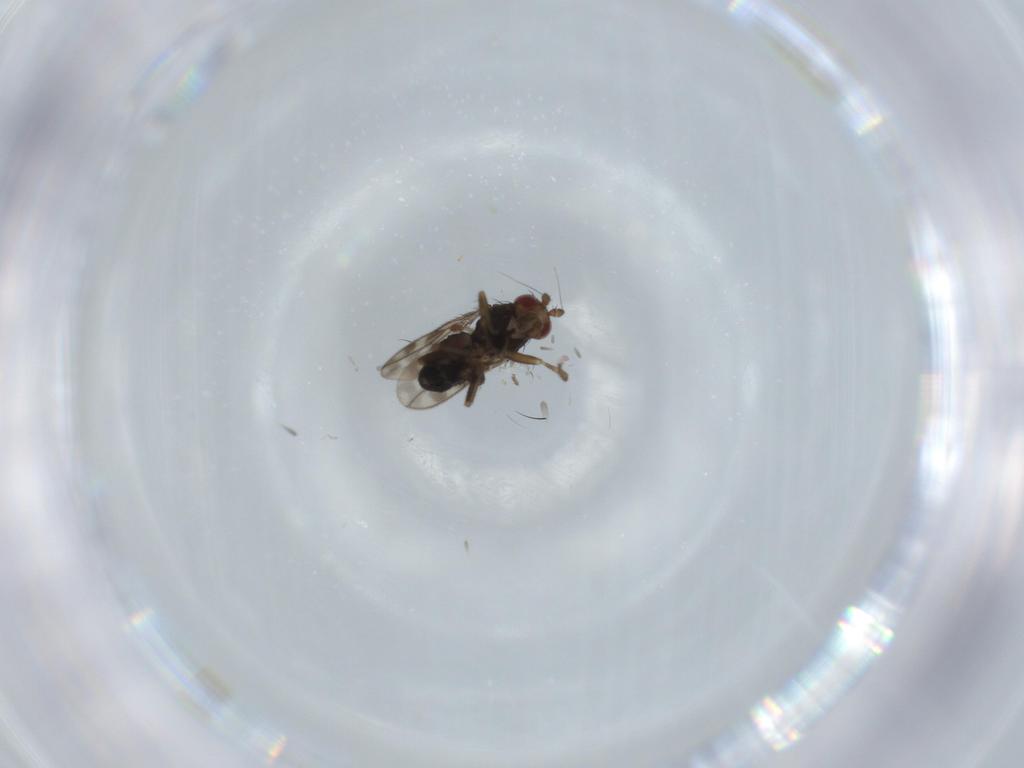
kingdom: Animalia
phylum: Arthropoda
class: Insecta
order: Diptera
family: Sphaeroceridae
